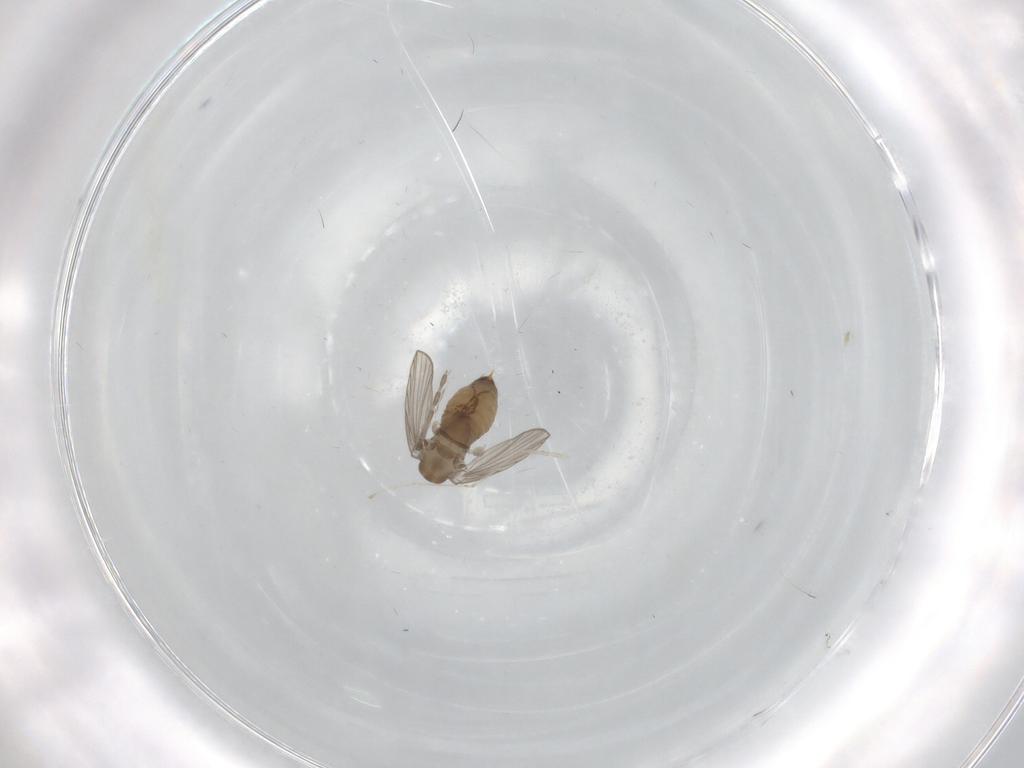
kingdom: Animalia
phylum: Arthropoda
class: Insecta
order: Diptera
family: Psychodidae
